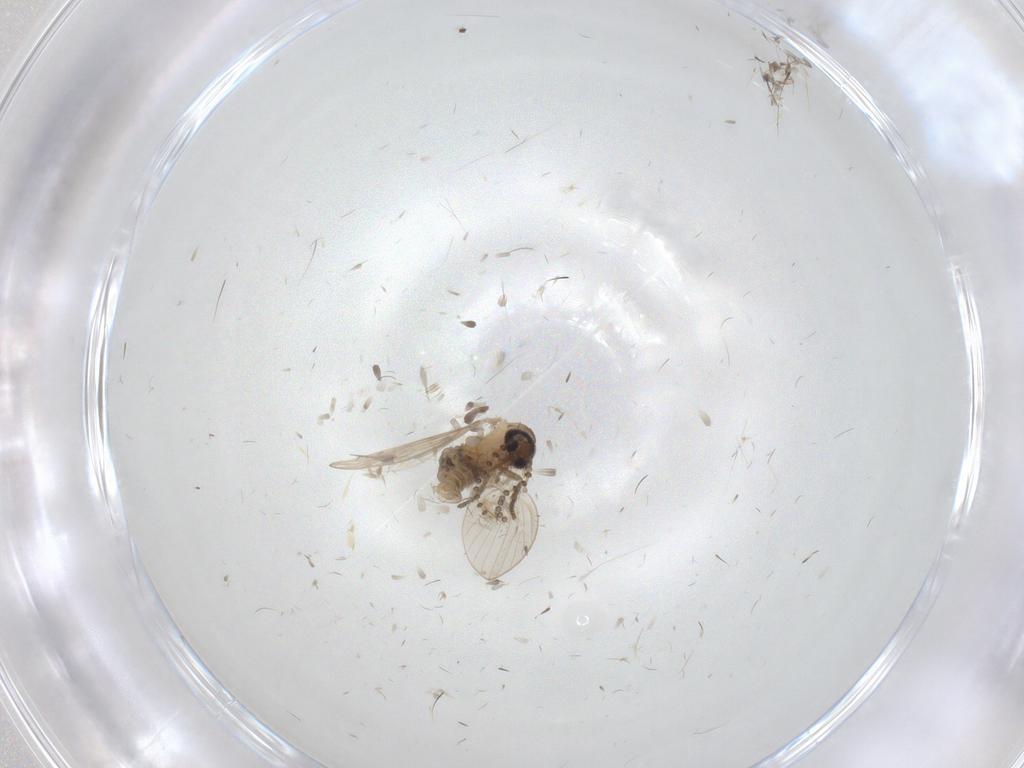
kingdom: Animalia
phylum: Arthropoda
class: Insecta
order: Diptera
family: Psychodidae
